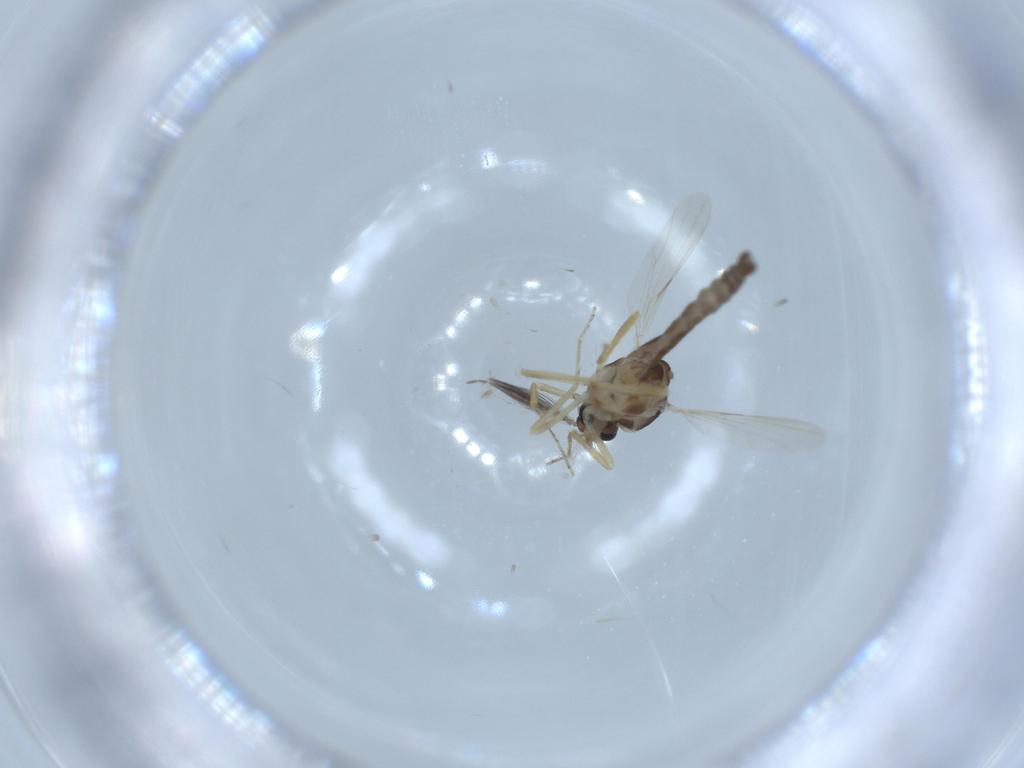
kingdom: Animalia
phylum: Arthropoda
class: Insecta
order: Diptera
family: Ceratopogonidae
